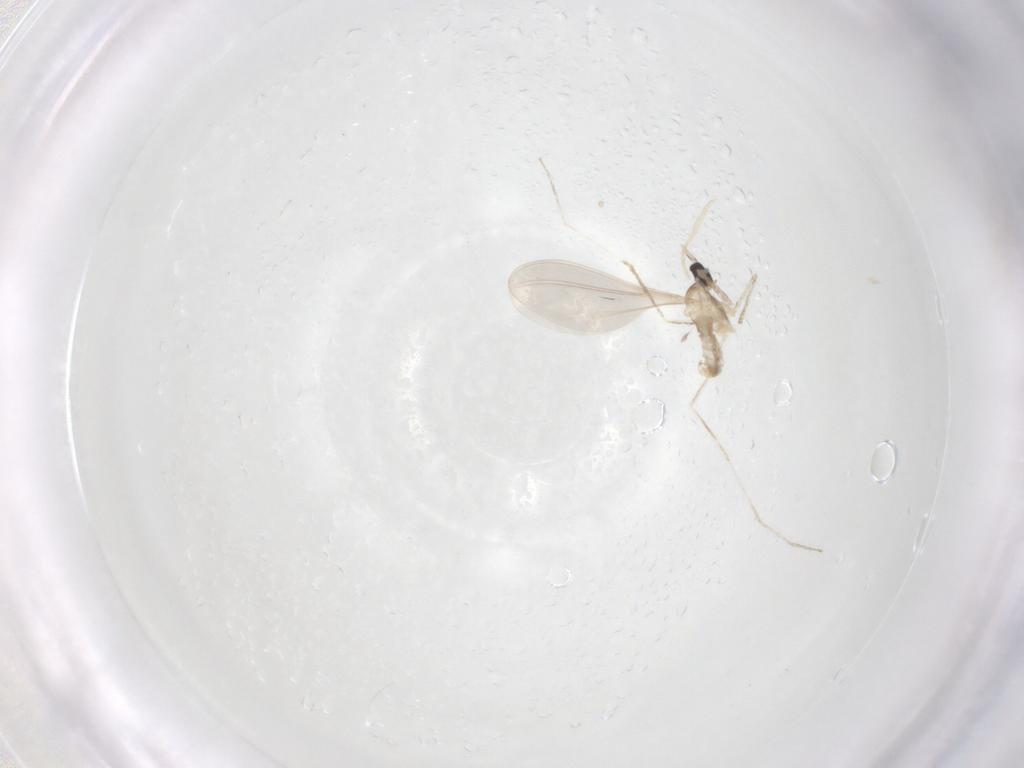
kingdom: Animalia
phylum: Arthropoda
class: Insecta
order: Diptera
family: Cecidomyiidae
